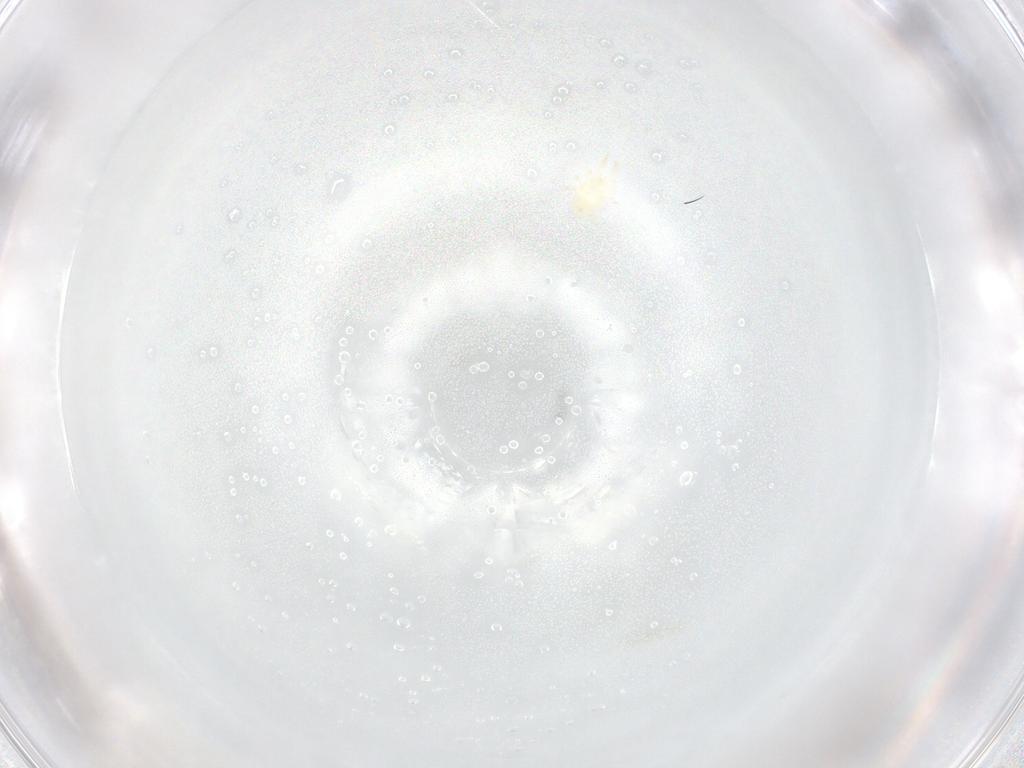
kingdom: Animalia
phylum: Arthropoda
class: Arachnida
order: Mesostigmata
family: Phytoseiidae
